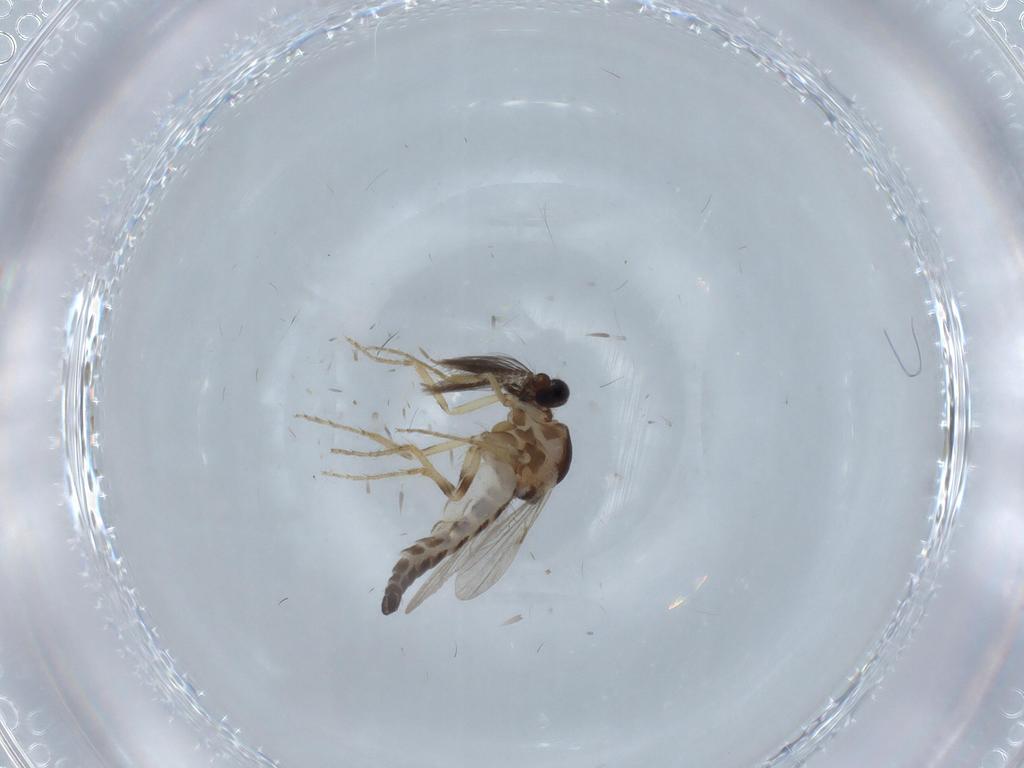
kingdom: Animalia
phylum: Arthropoda
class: Insecta
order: Diptera
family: Ceratopogonidae
